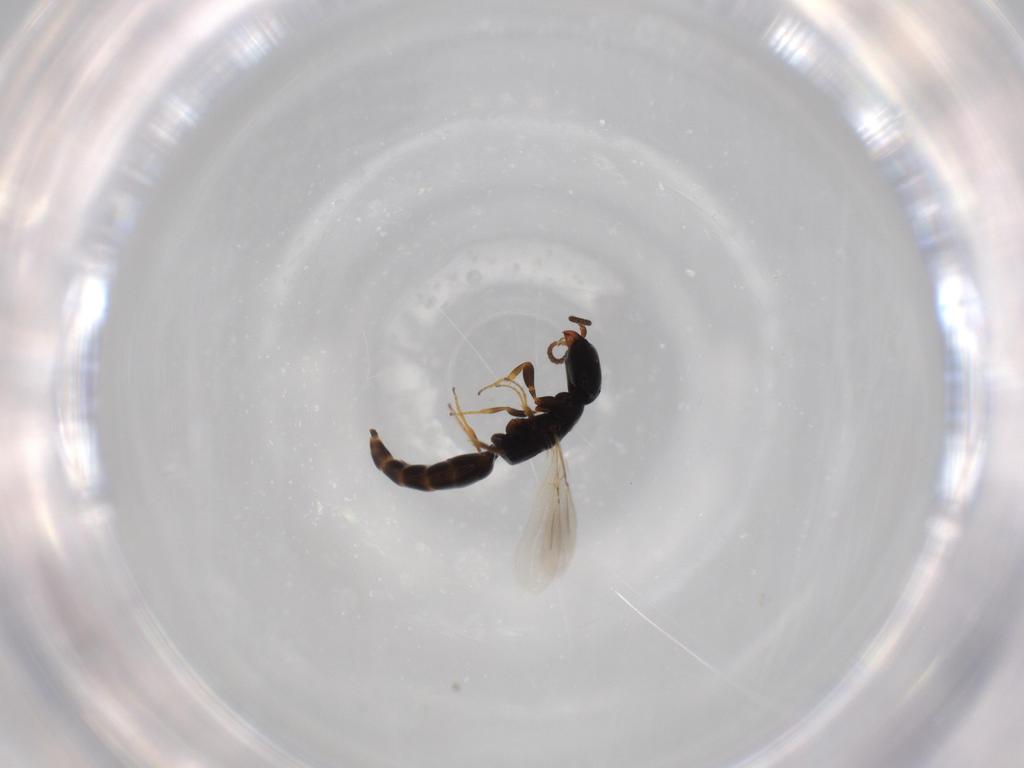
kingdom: Animalia
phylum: Arthropoda
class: Insecta
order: Hymenoptera
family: Bethylidae
